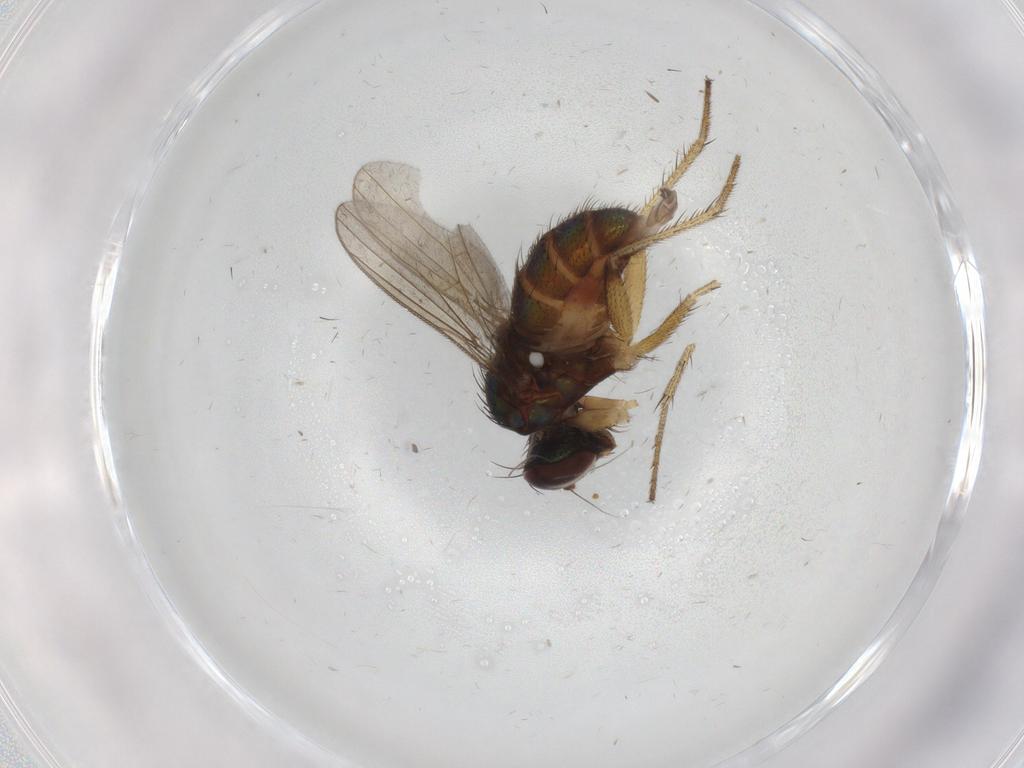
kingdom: Animalia
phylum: Arthropoda
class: Insecta
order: Diptera
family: Dolichopodidae
